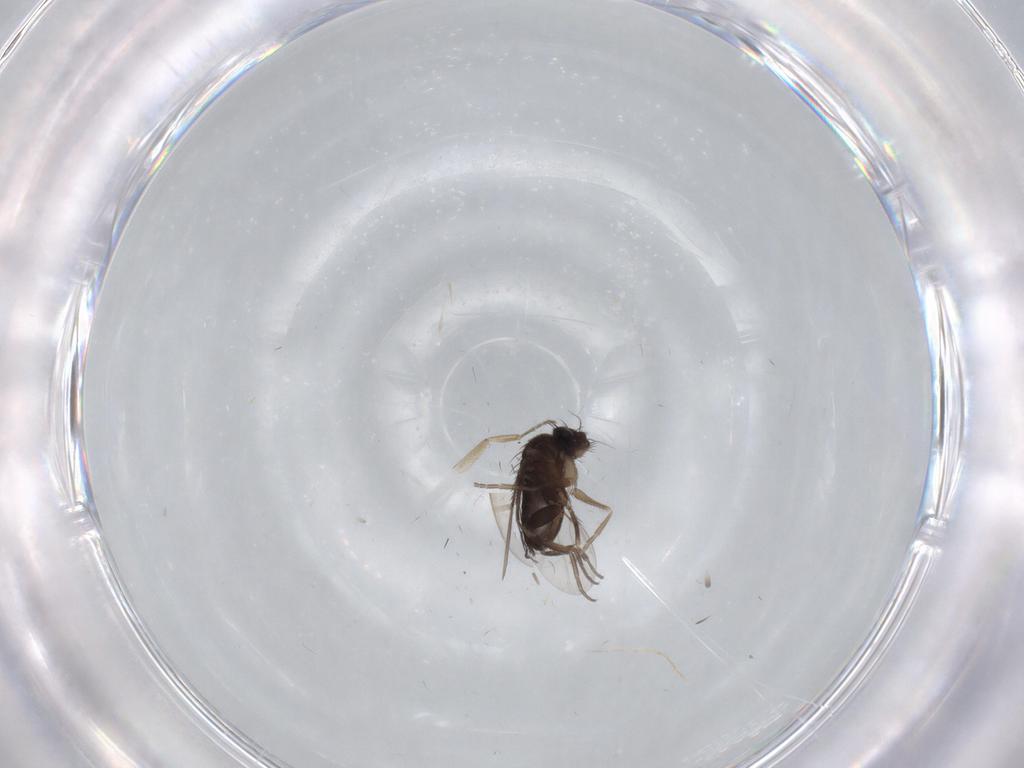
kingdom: Animalia
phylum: Arthropoda
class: Insecta
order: Diptera
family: Phoridae
